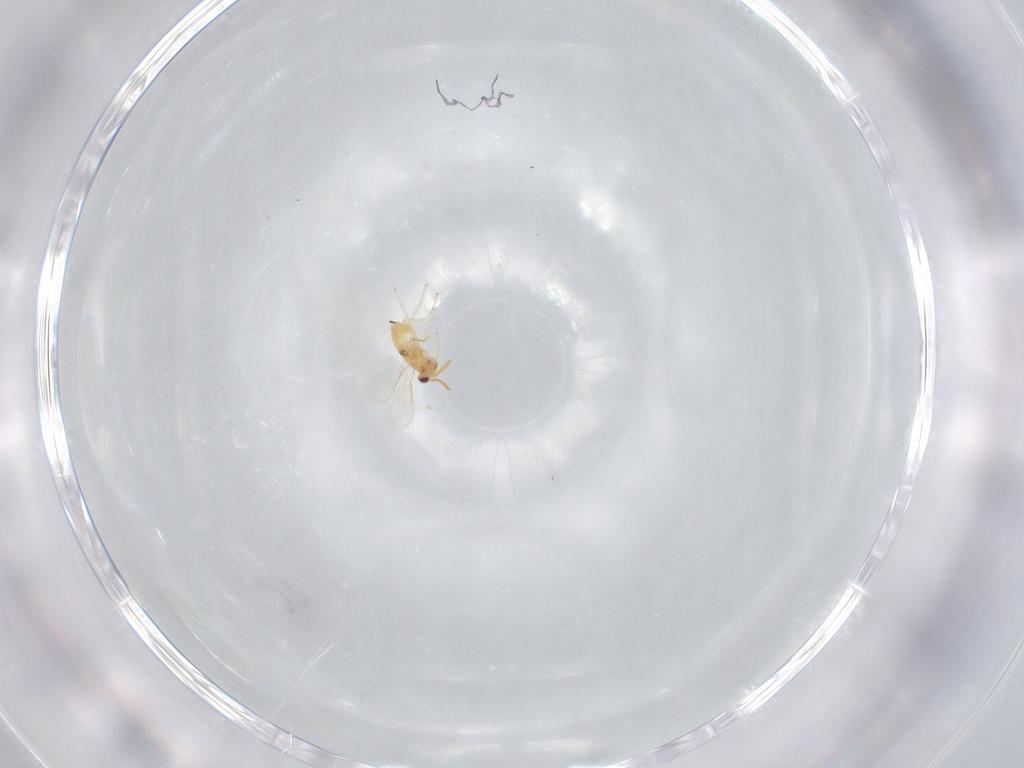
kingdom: Animalia
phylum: Arthropoda
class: Insecta
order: Hymenoptera
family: Aphelinidae
